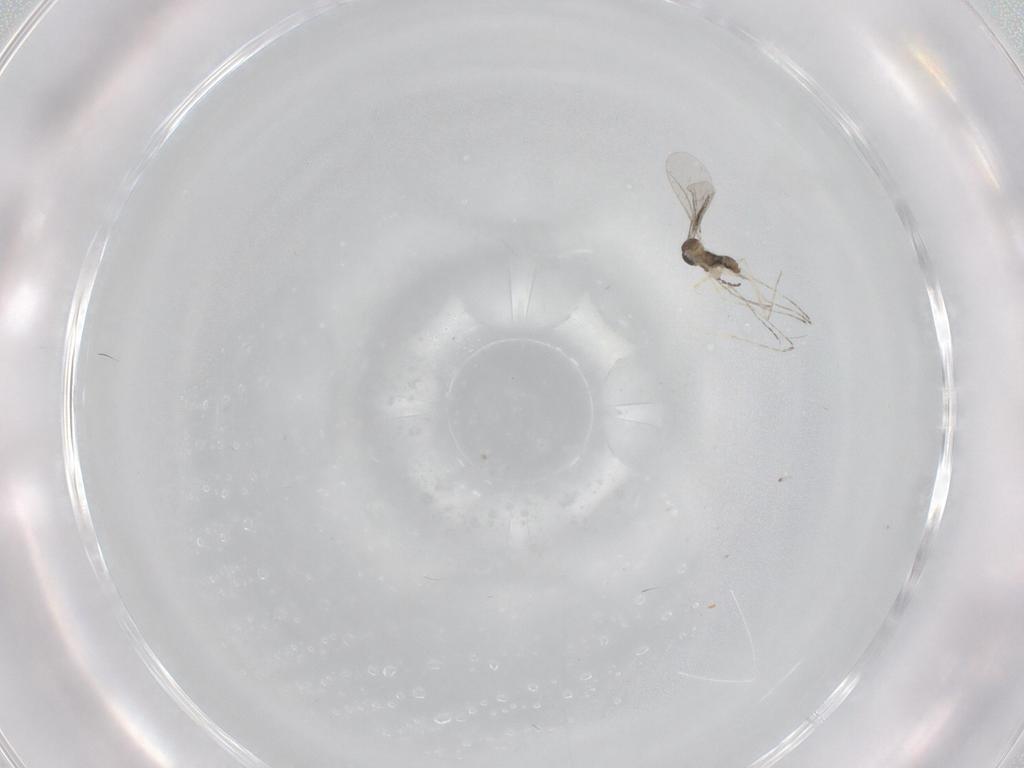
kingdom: Animalia
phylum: Arthropoda
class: Insecta
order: Diptera
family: Cecidomyiidae
